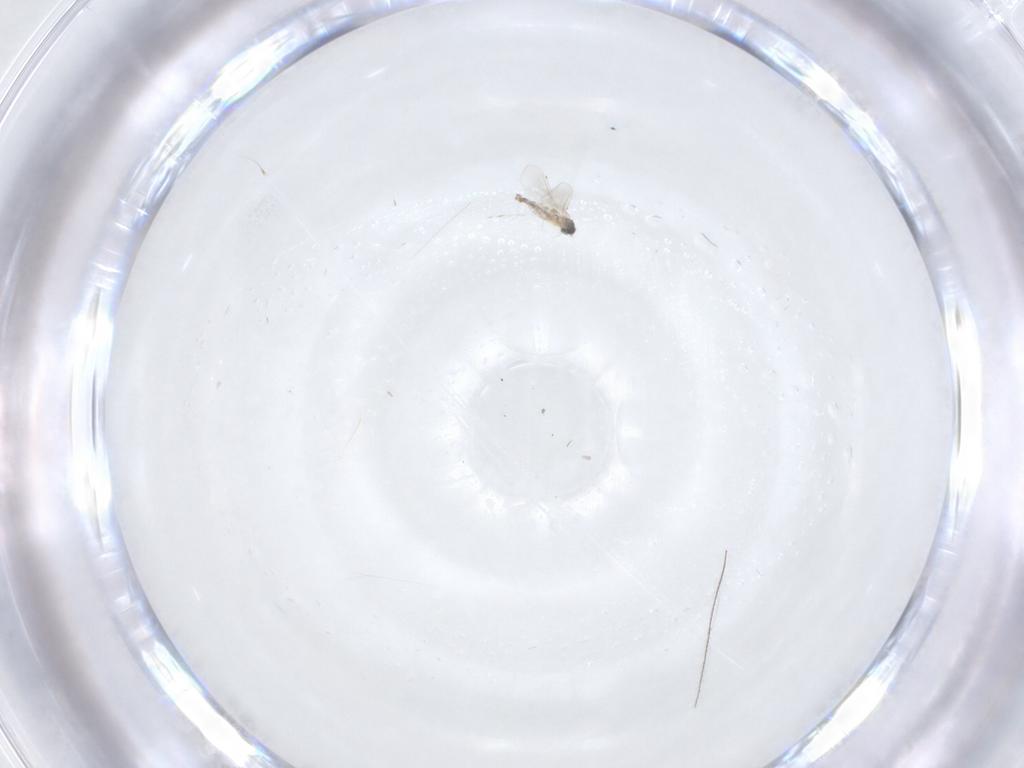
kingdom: Animalia
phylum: Arthropoda
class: Insecta
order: Diptera
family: Cecidomyiidae
